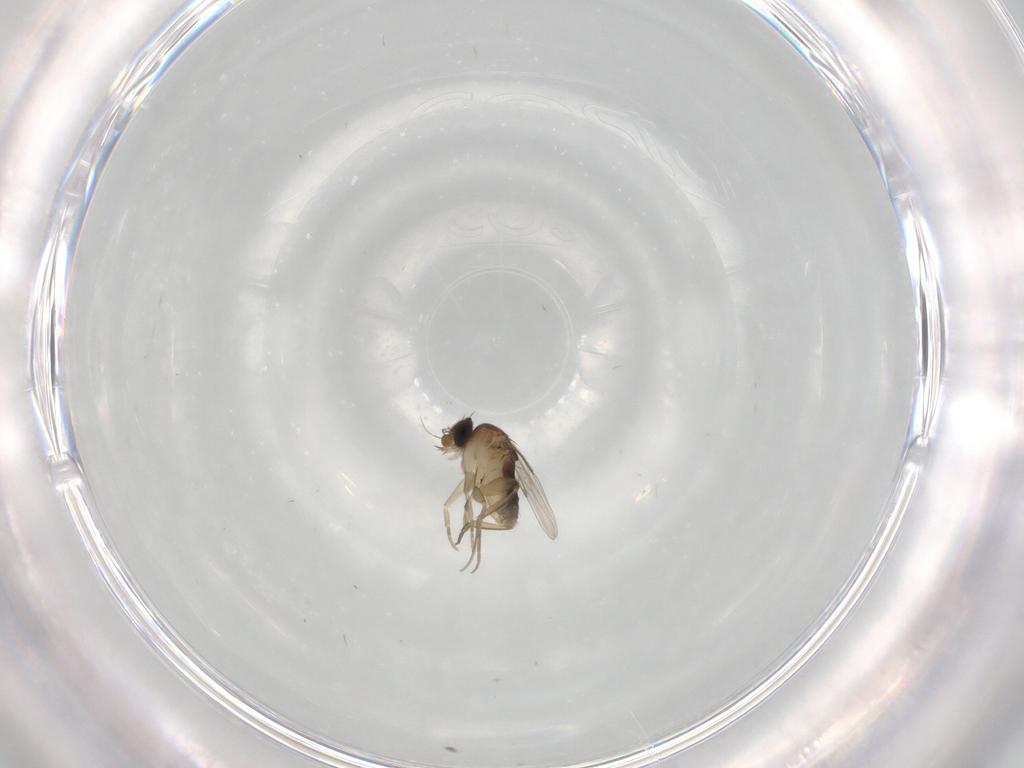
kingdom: Animalia
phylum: Arthropoda
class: Insecta
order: Diptera
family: Phoridae
